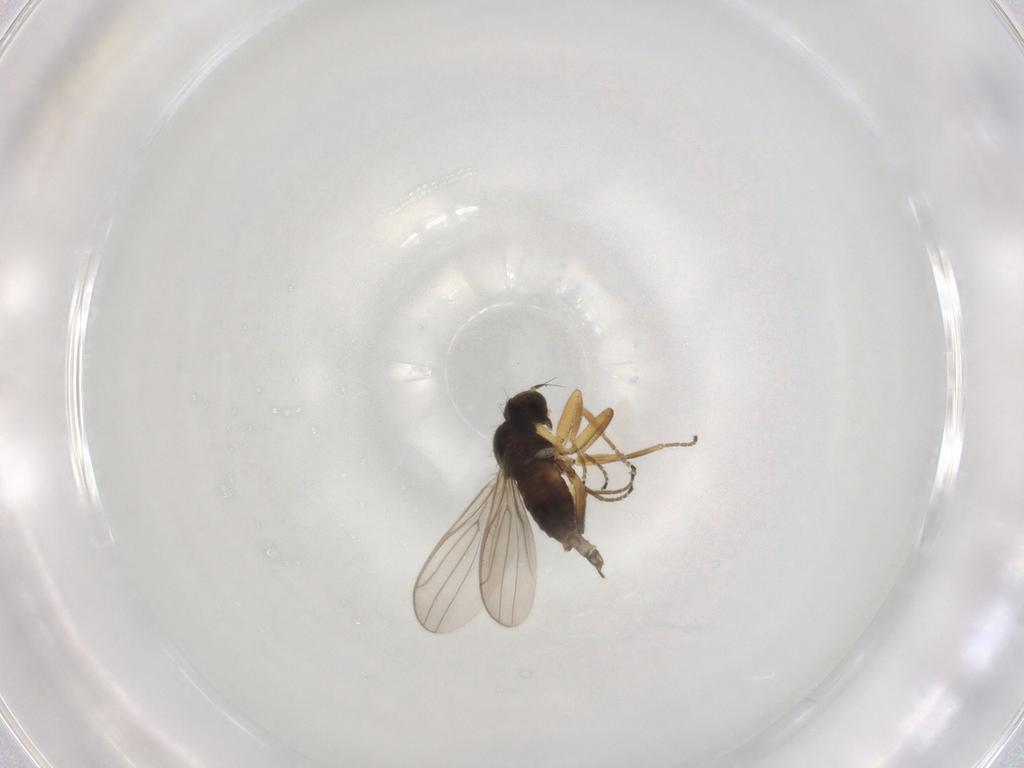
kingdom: Animalia
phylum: Arthropoda
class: Insecta
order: Diptera
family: Hybotidae
